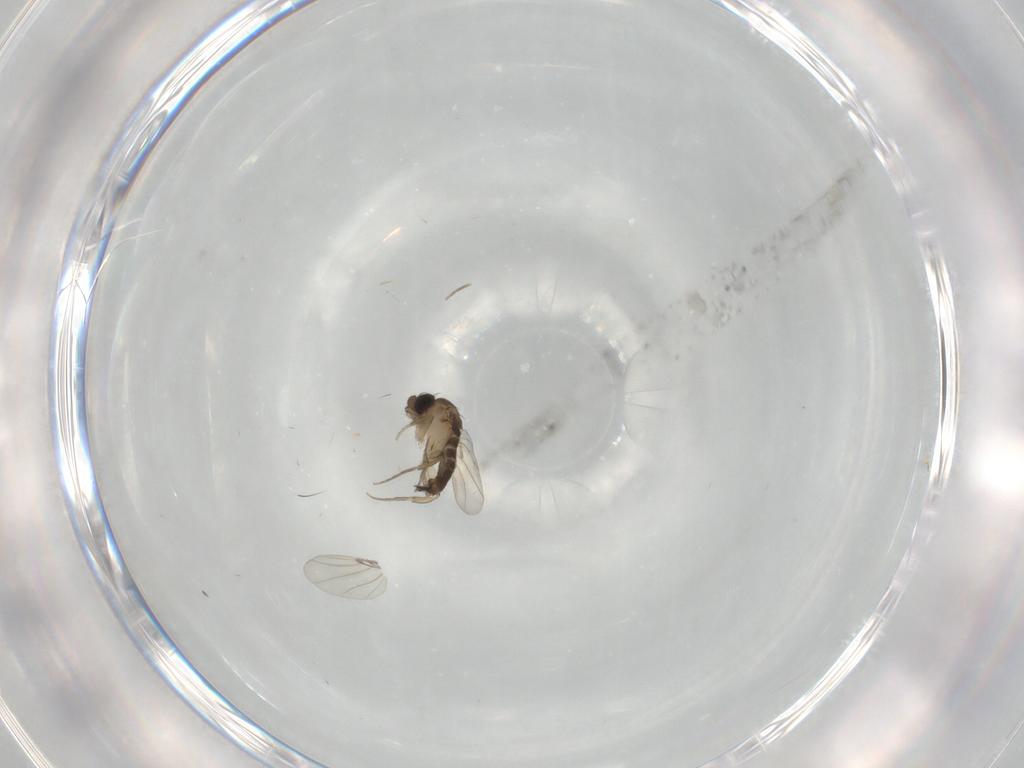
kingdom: Animalia
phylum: Arthropoda
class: Insecta
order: Diptera
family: Phoridae
